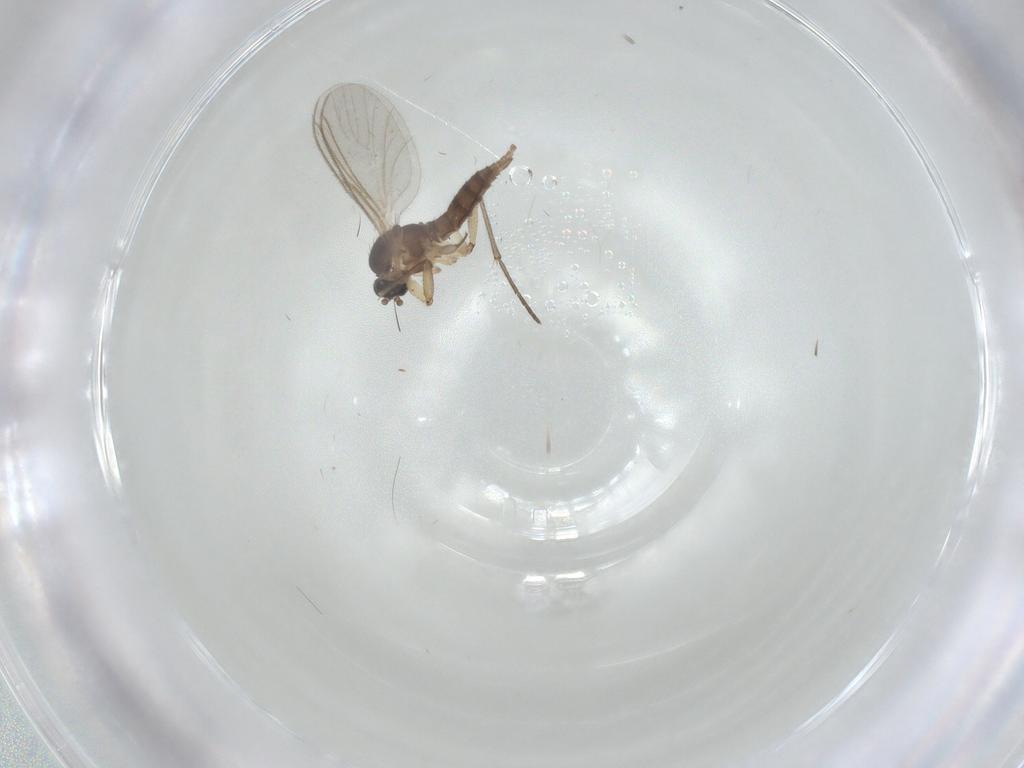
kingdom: Animalia
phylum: Arthropoda
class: Insecta
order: Diptera
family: Sciaridae
